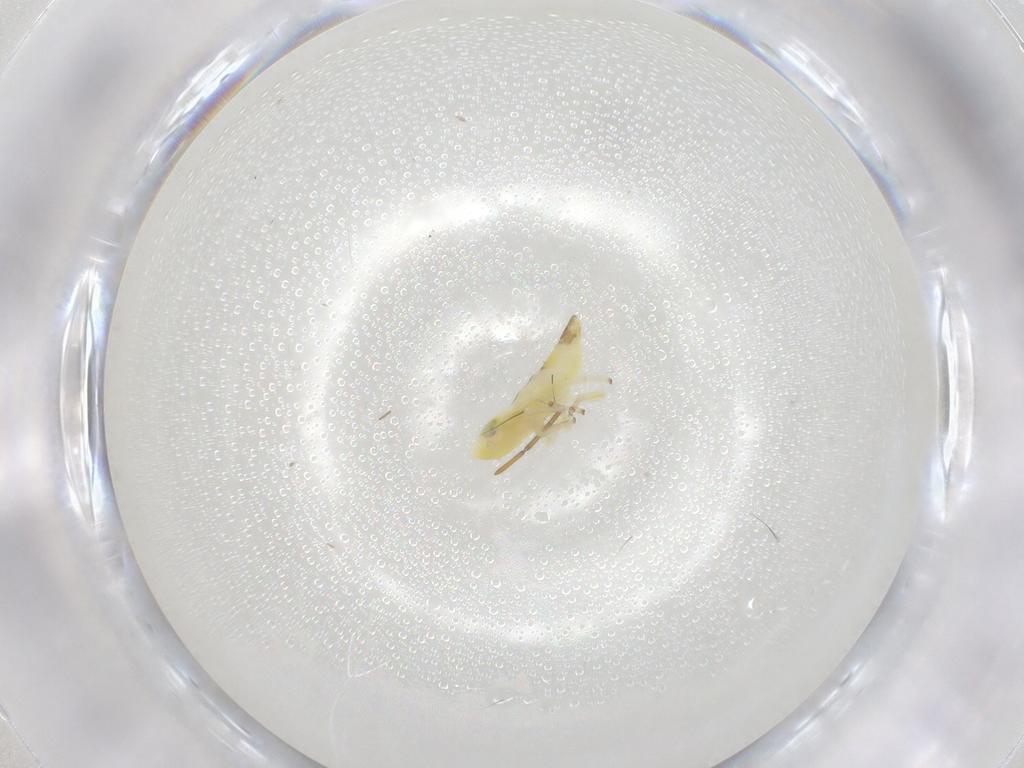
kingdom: Animalia
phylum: Arthropoda
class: Insecta
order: Hemiptera
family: Cicadellidae
